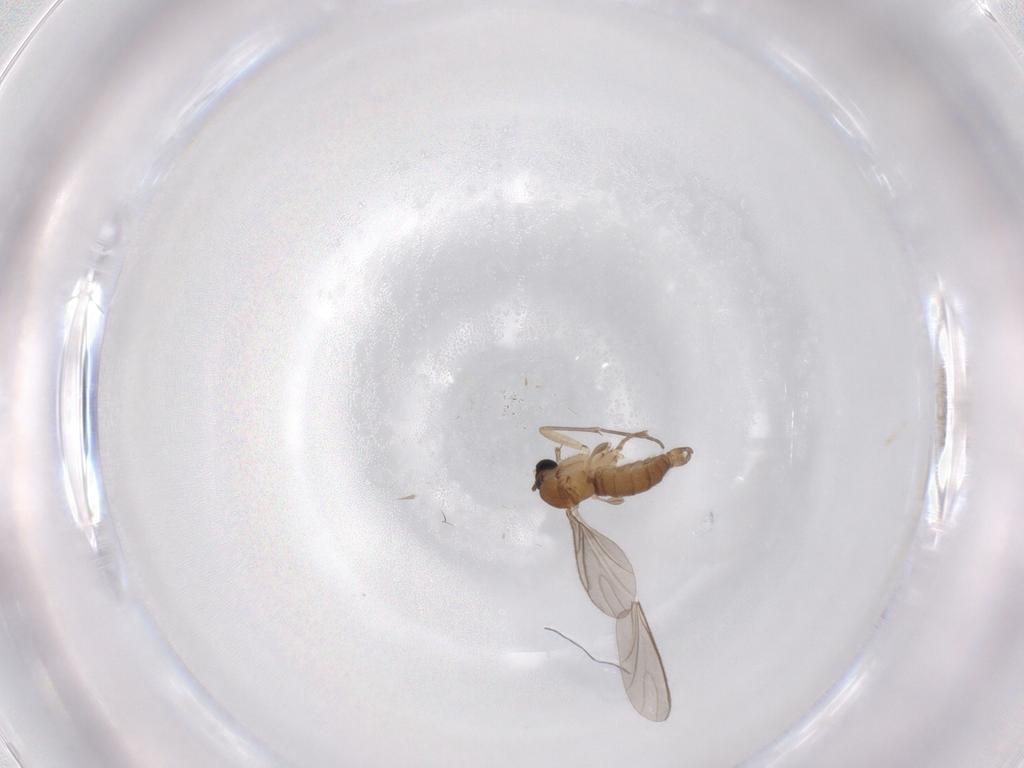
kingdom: Animalia
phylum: Arthropoda
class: Insecta
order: Diptera
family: Sciaridae
